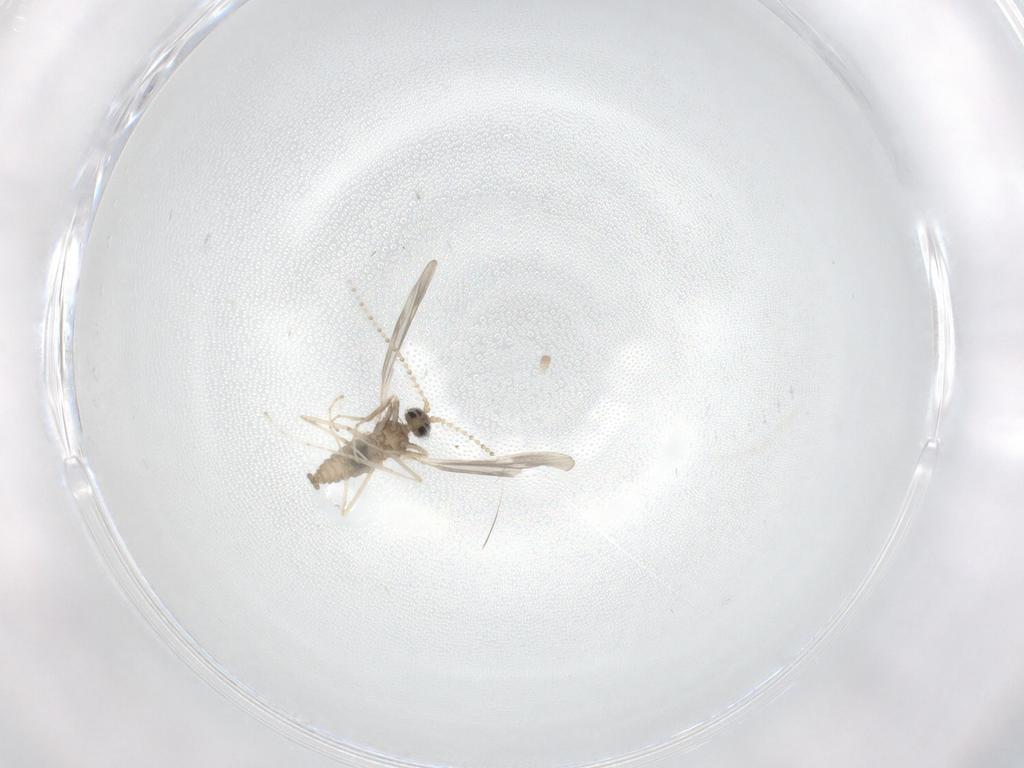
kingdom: Animalia
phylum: Arthropoda
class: Insecta
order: Diptera
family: Cecidomyiidae
